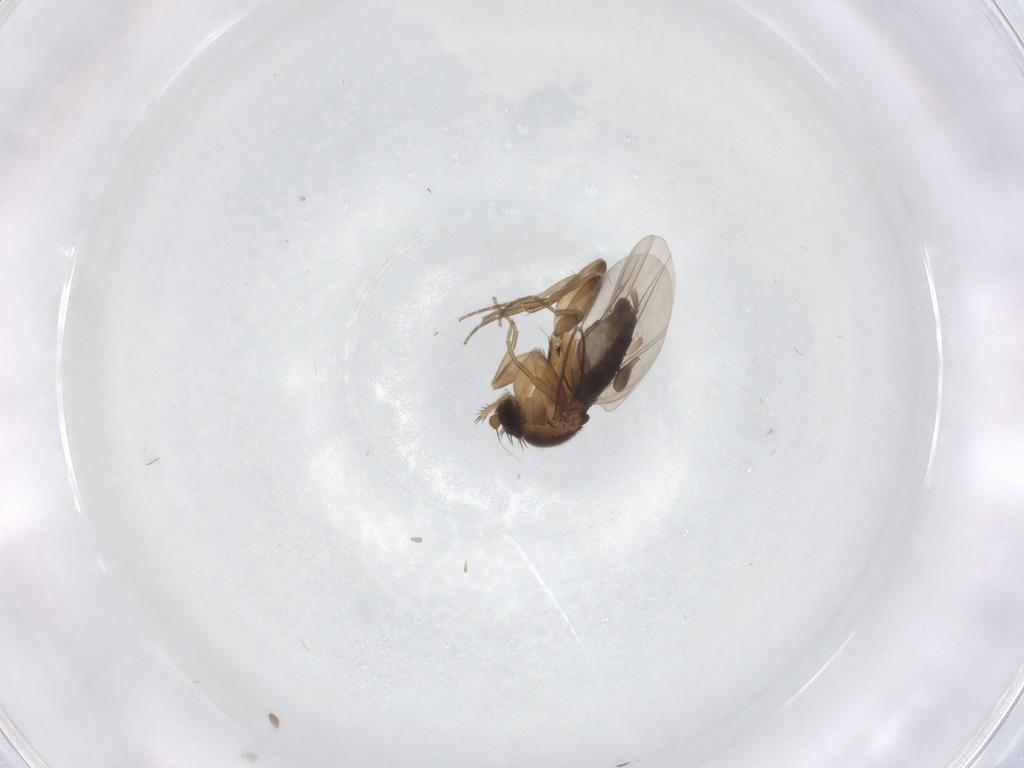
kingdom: Animalia
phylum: Arthropoda
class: Insecta
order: Diptera
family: Phoridae
